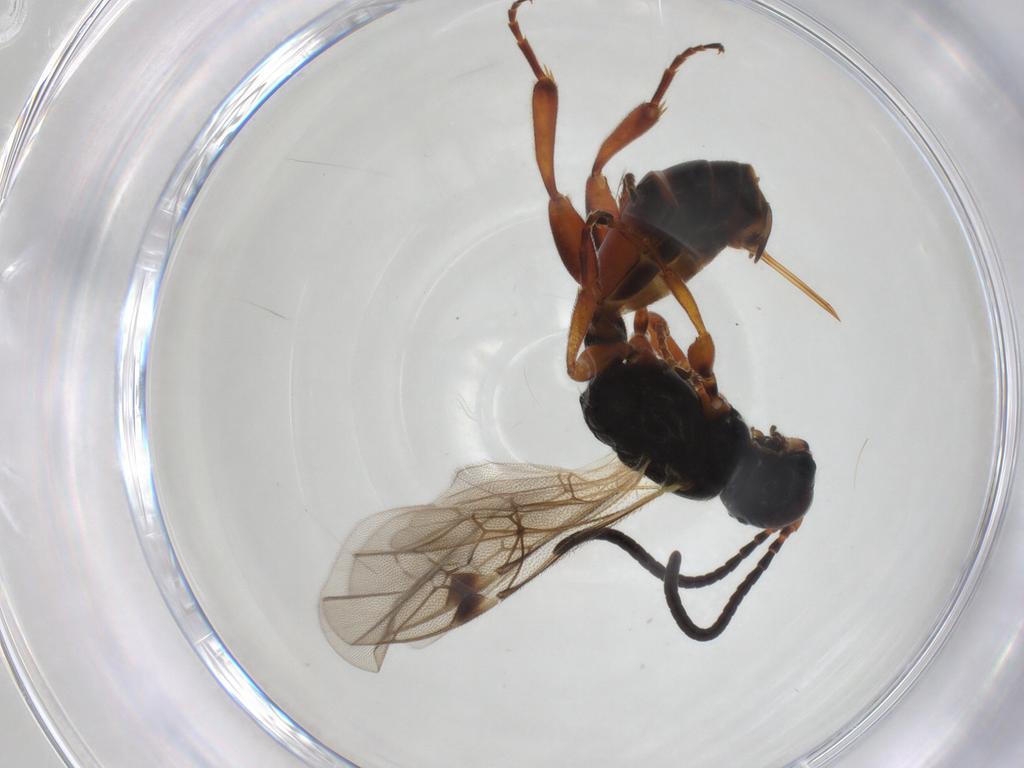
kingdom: Animalia
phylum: Arthropoda
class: Insecta
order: Hymenoptera
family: Ichneumonidae
